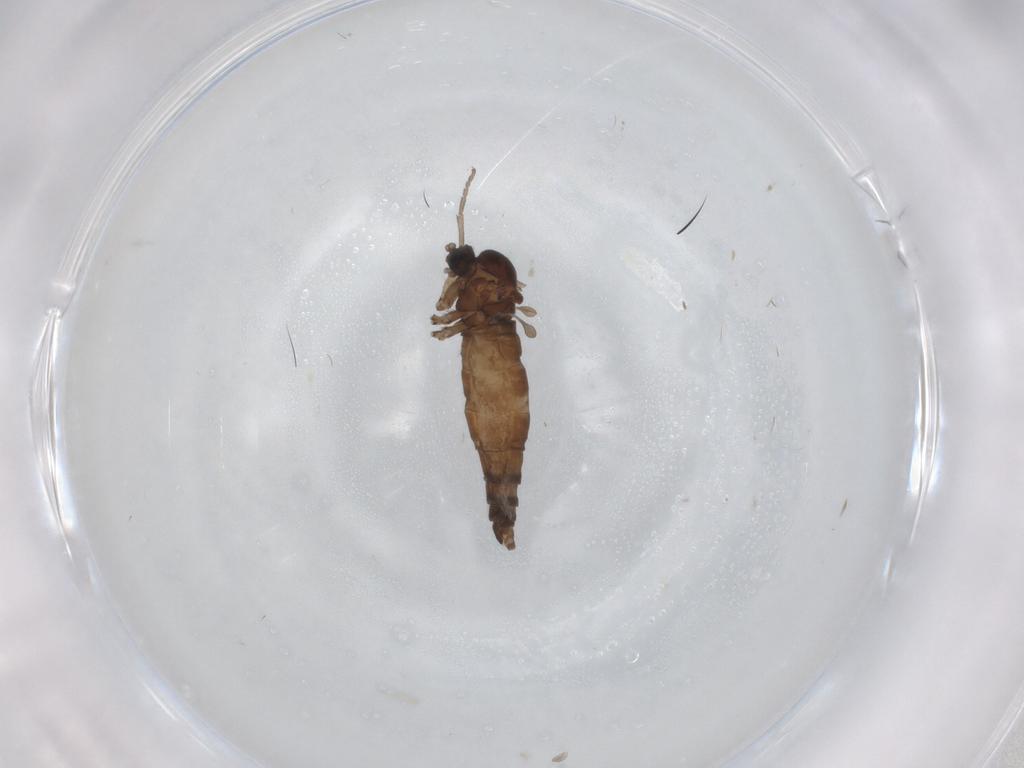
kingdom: Animalia
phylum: Arthropoda
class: Insecta
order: Diptera
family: Sciaridae
